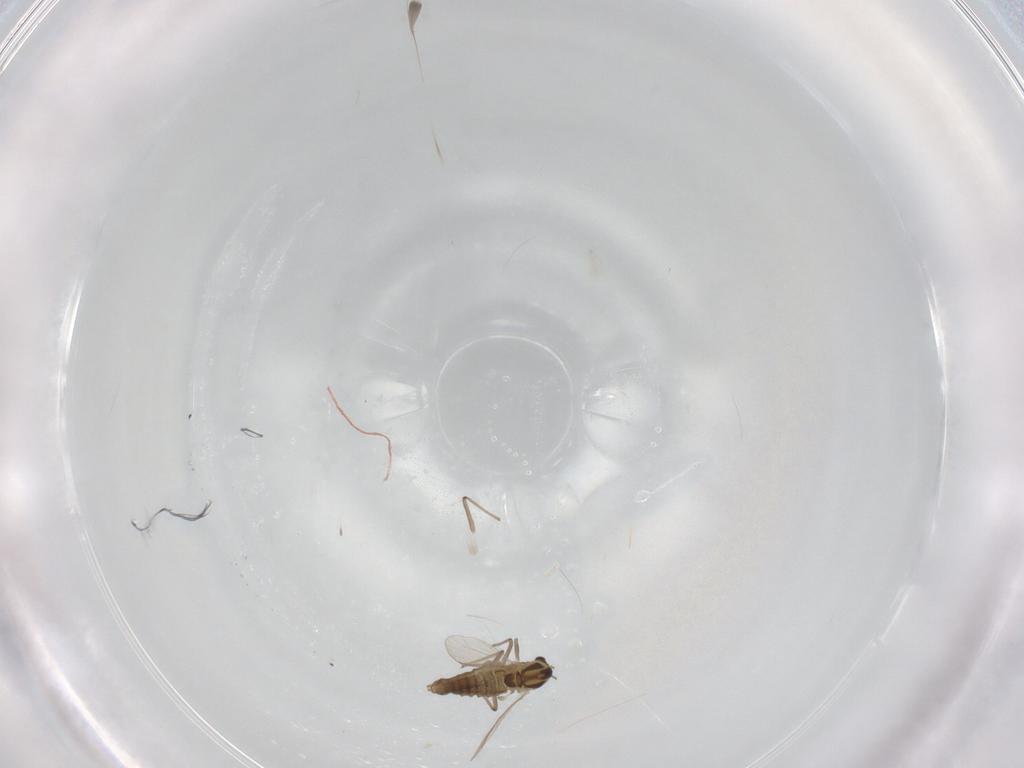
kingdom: Animalia
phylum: Arthropoda
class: Insecta
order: Diptera
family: Chironomidae
